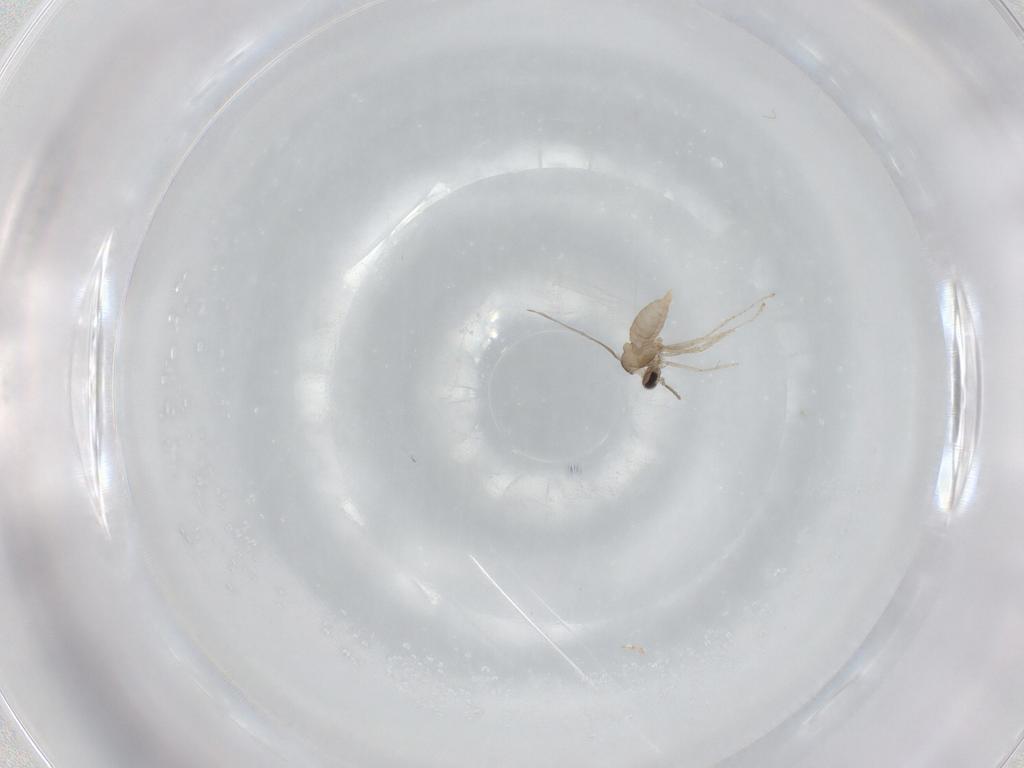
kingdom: Animalia
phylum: Arthropoda
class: Insecta
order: Diptera
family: Cecidomyiidae
